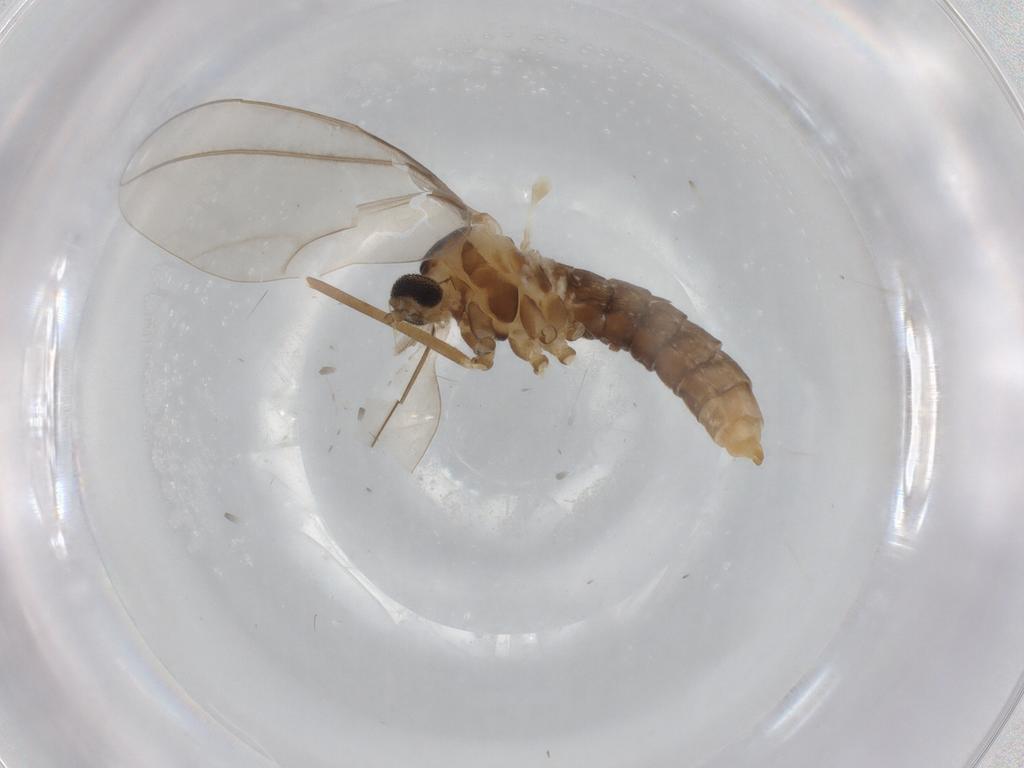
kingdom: Animalia
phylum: Arthropoda
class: Insecta
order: Diptera
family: Cecidomyiidae
